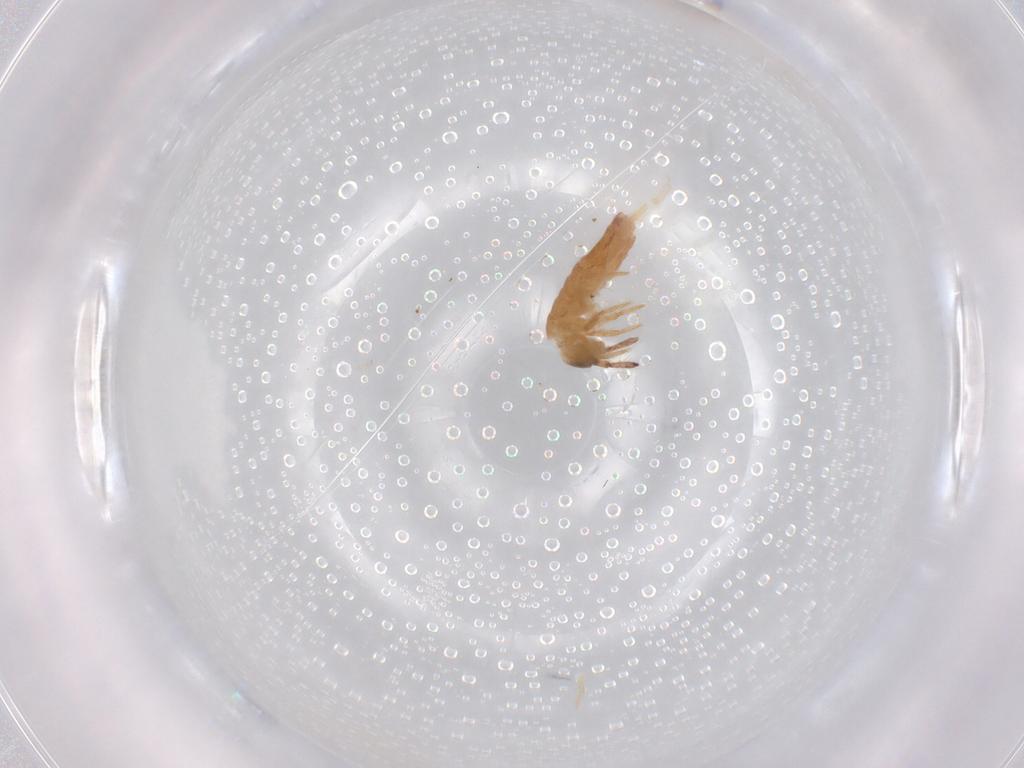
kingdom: Animalia
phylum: Arthropoda
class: Collembola
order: Entomobryomorpha
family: Entomobryidae
